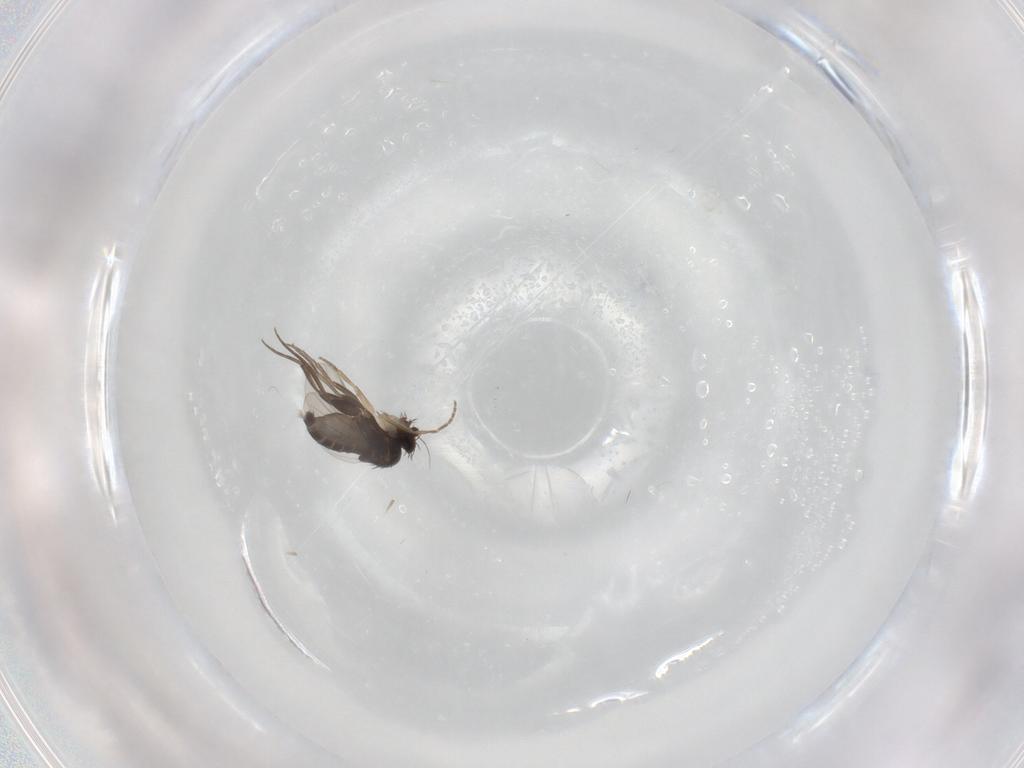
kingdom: Animalia
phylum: Arthropoda
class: Insecta
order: Diptera
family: Phoridae
